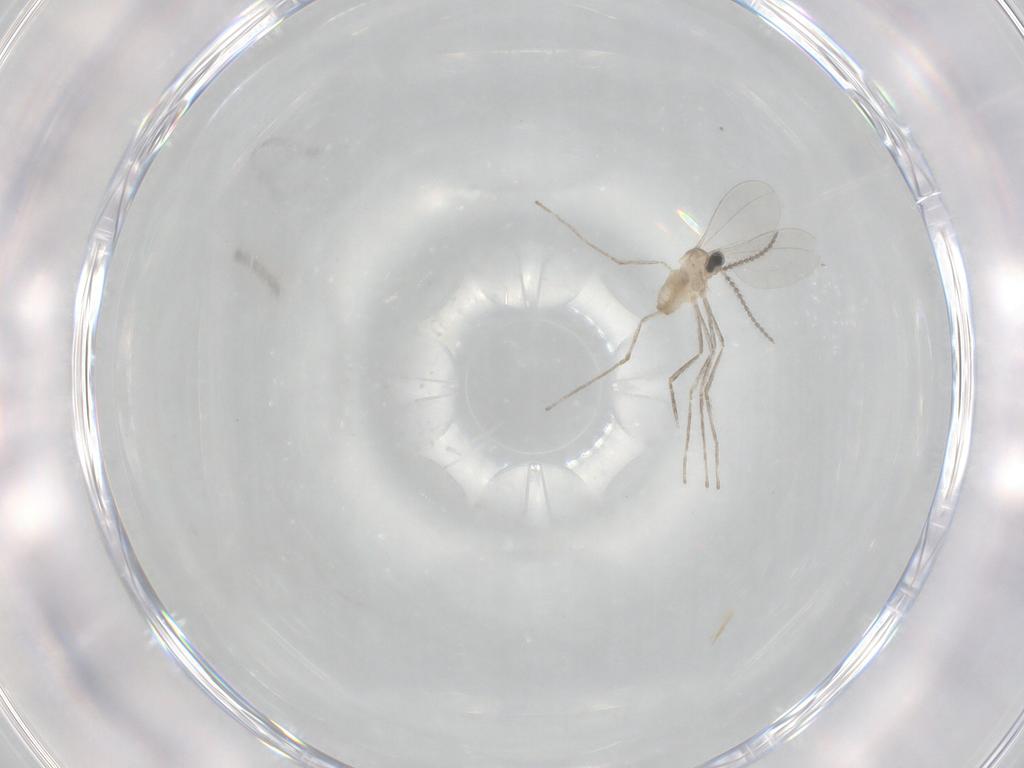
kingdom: Animalia
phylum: Arthropoda
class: Insecta
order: Diptera
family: Cecidomyiidae
